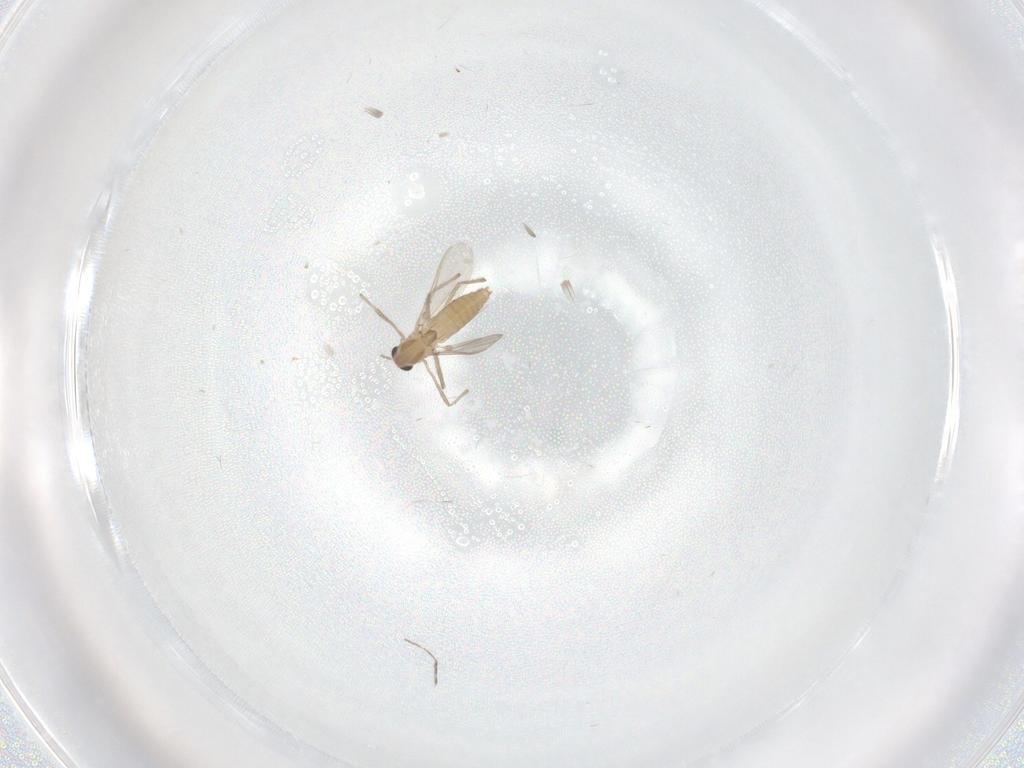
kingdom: Animalia
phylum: Arthropoda
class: Insecta
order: Diptera
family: Chironomidae
